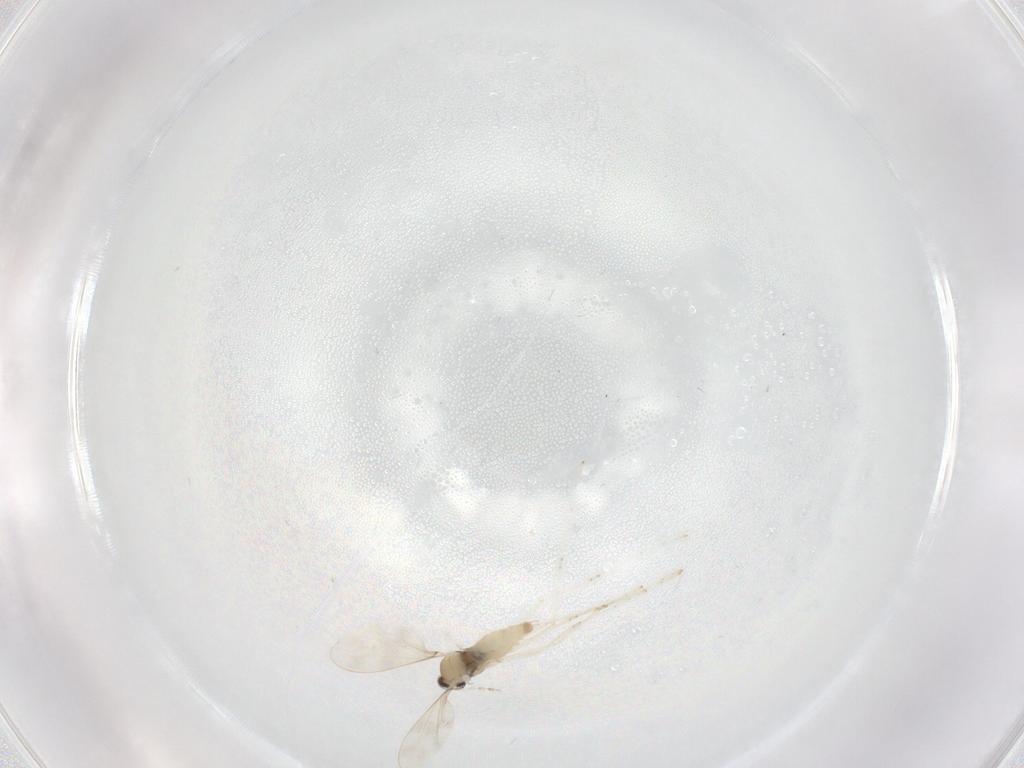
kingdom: Animalia
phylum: Arthropoda
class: Insecta
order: Diptera
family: Cecidomyiidae
